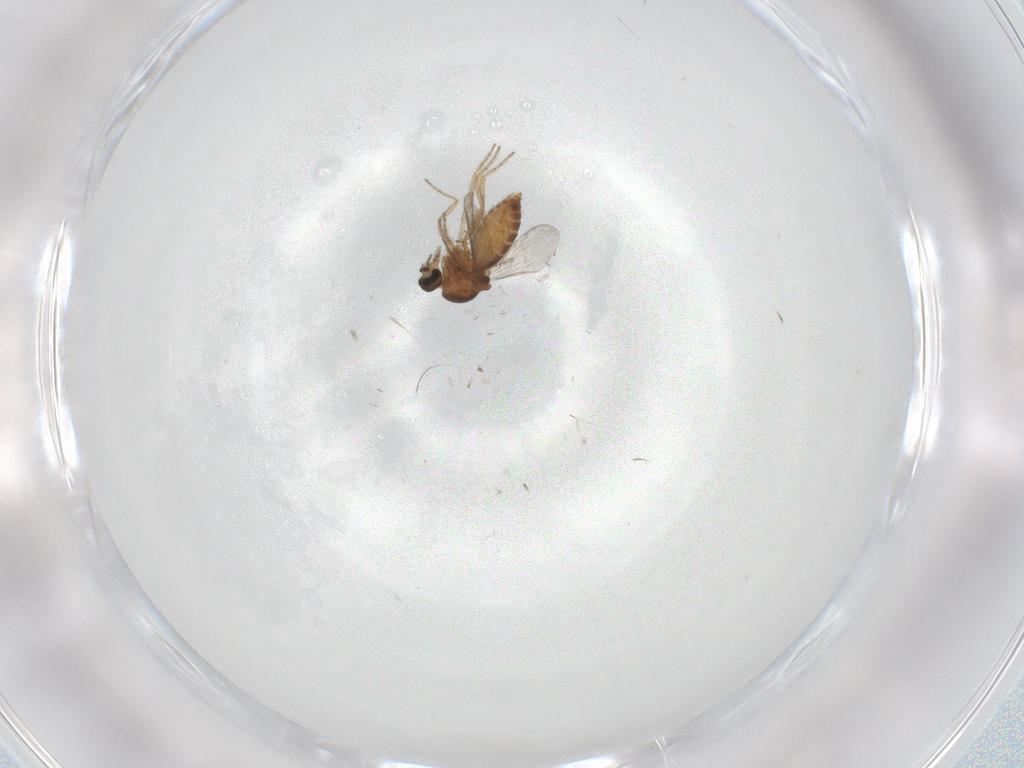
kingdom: Animalia
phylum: Arthropoda
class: Insecta
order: Diptera
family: Ceratopogonidae
